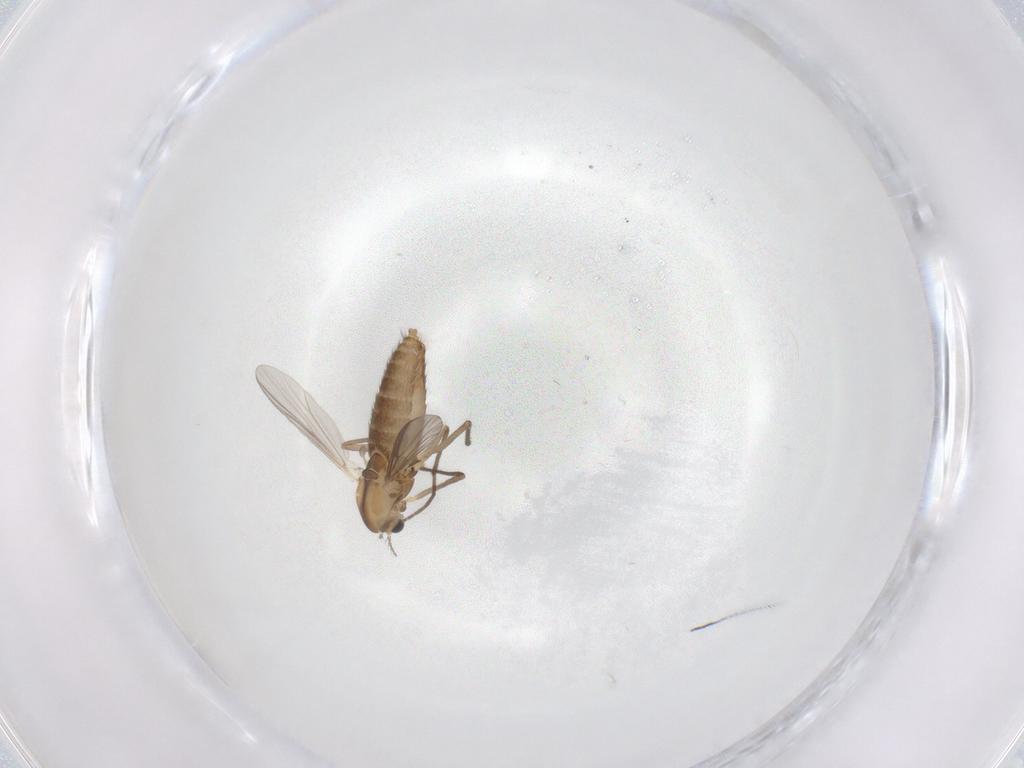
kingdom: Animalia
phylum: Arthropoda
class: Insecta
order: Diptera
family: Chironomidae
